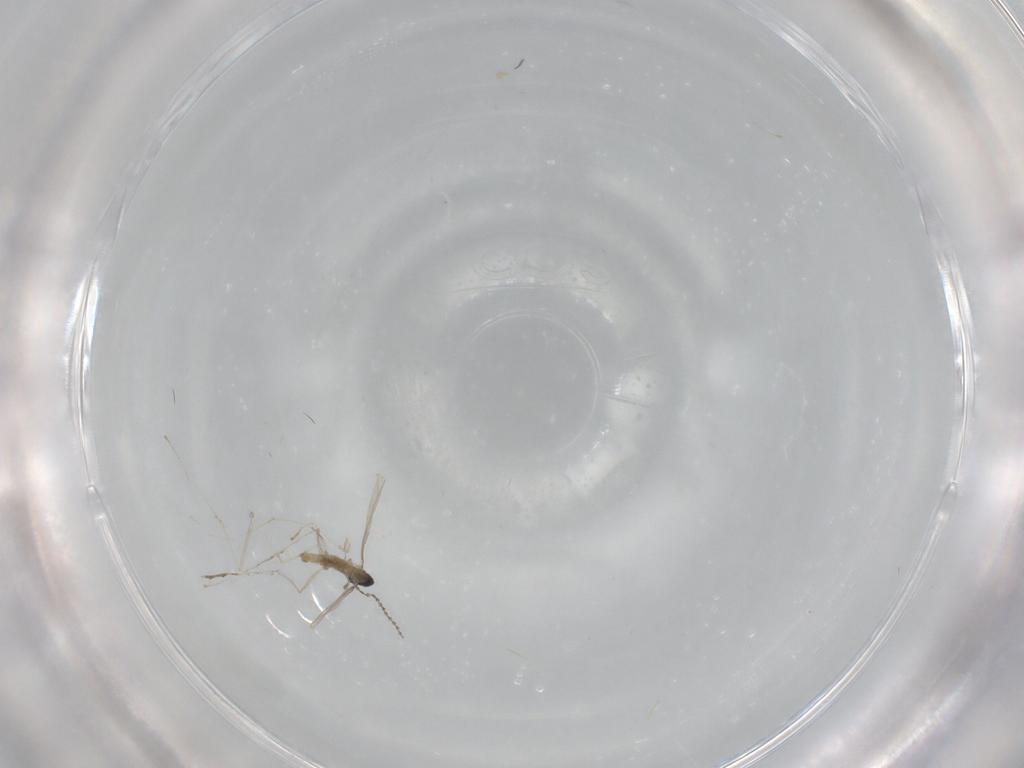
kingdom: Animalia
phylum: Arthropoda
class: Insecta
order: Diptera
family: Cecidomyiidae
